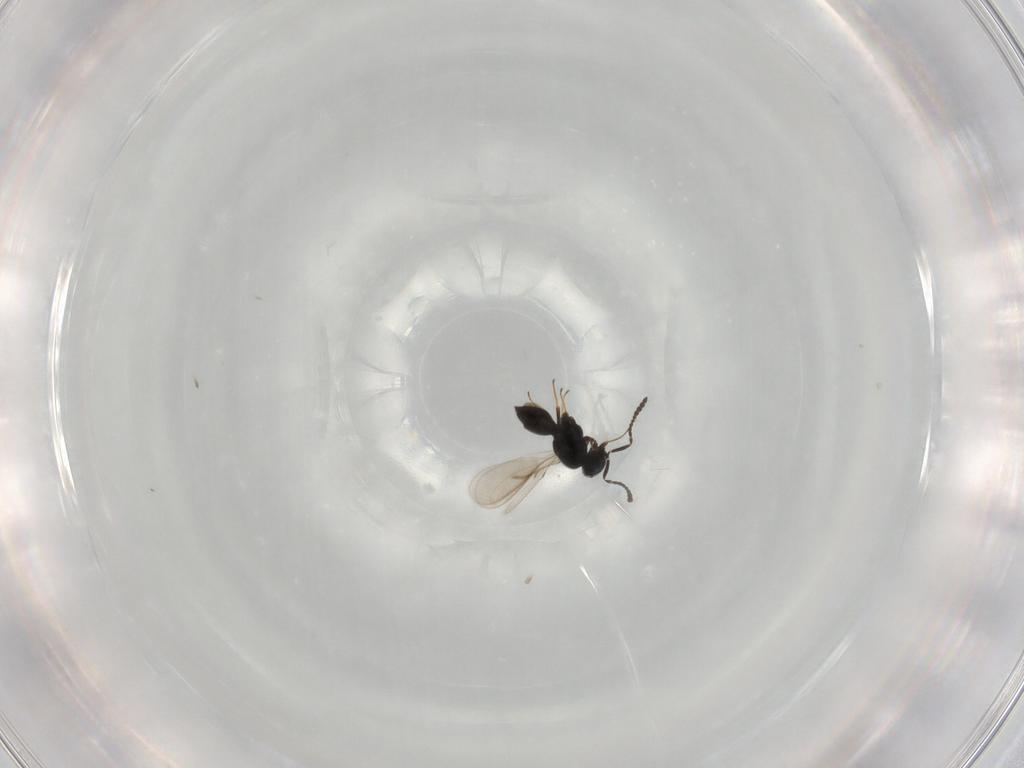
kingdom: Animalia
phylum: Arthropoda
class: Insecta
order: Hymenoptera
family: Scelionidae
